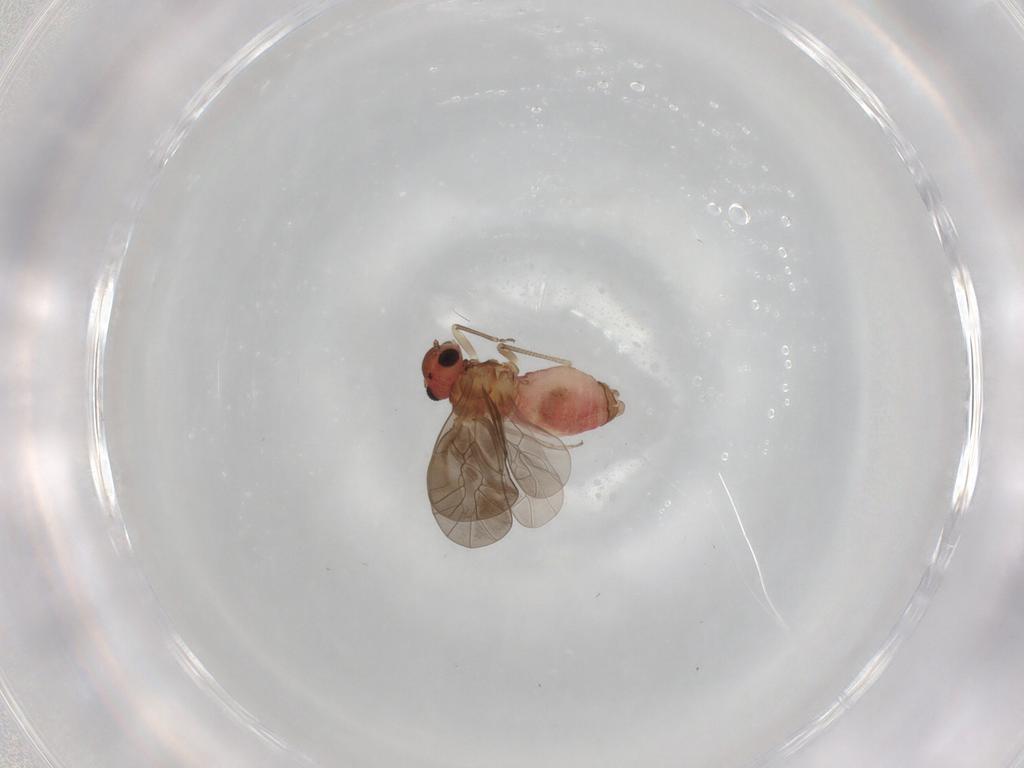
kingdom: Animalia
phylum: Arthropoda
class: Insecta
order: Psocodea
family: Lachesillidae
